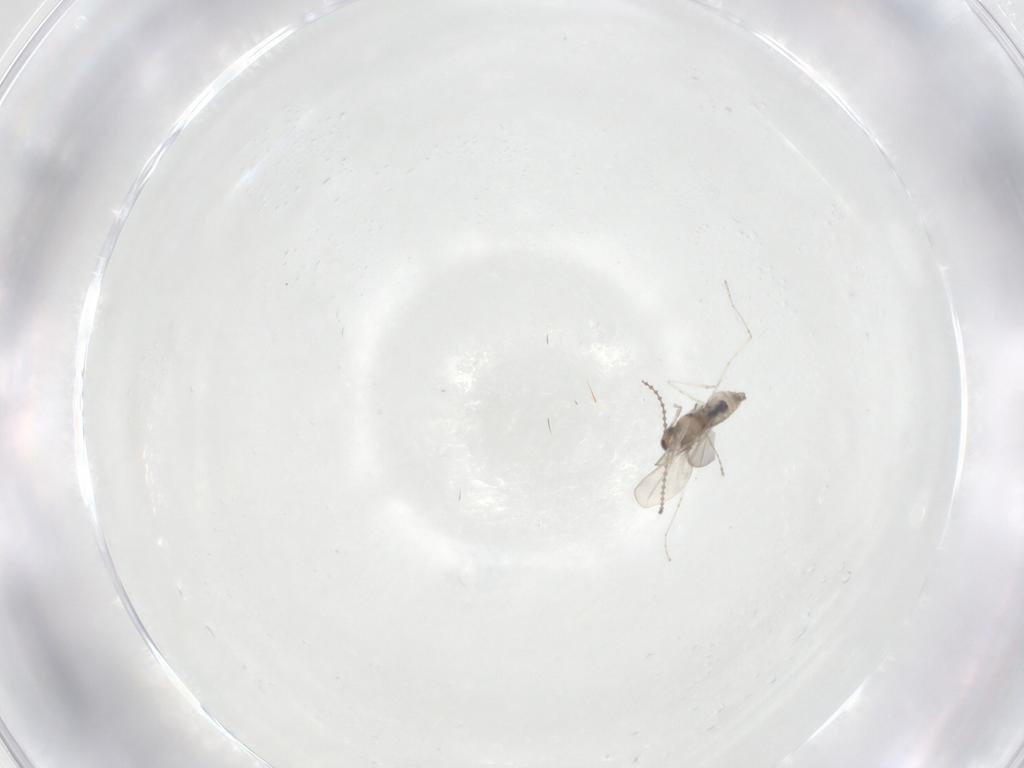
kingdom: Animalia
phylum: Arthropoda
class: Insecta
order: Diptera
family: Sciaridae
